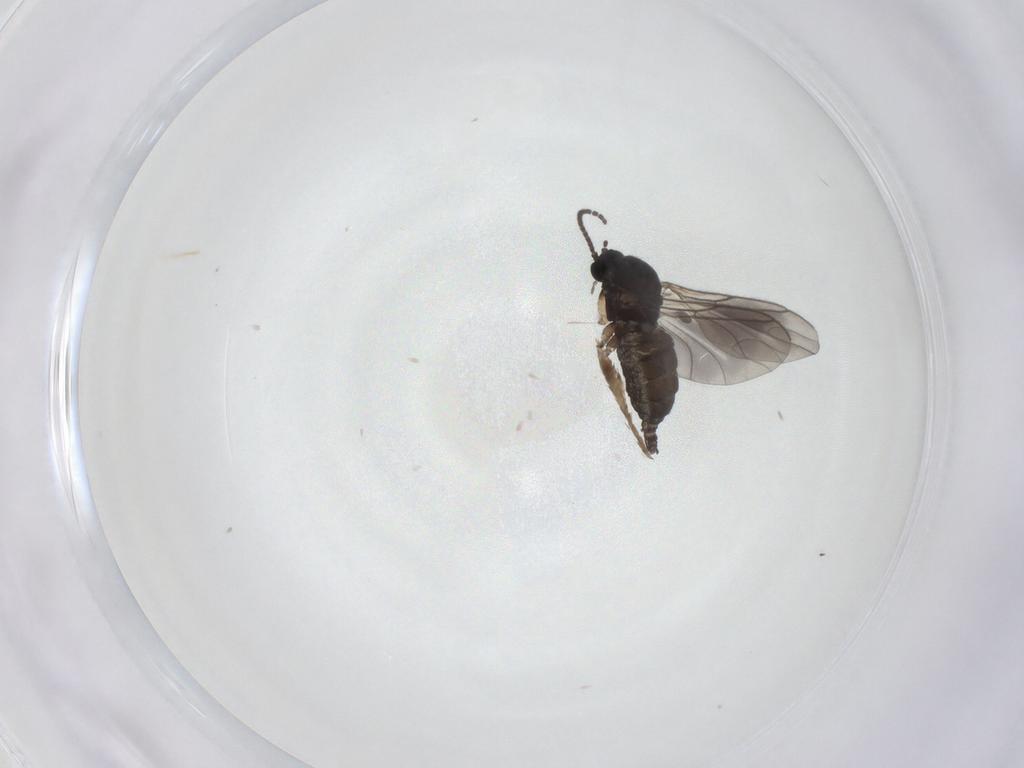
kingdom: Animalia
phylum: Arthropoda
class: Insecta
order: Diptera
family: Sciaridae
